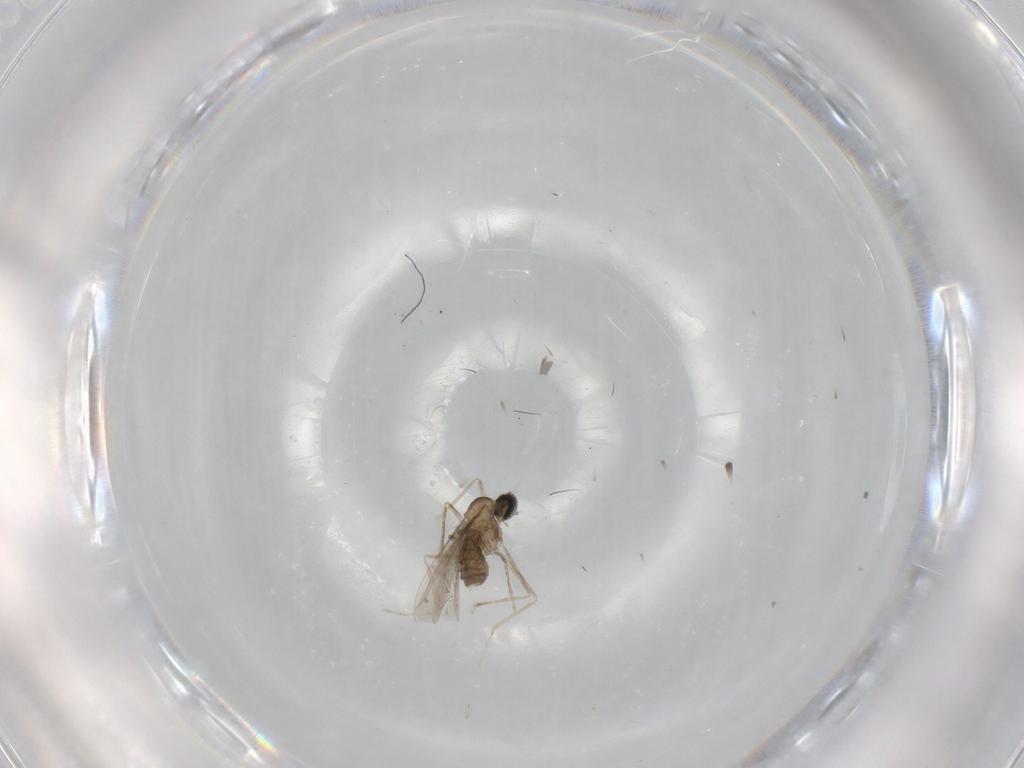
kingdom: Animalia
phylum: Arthropoda
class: Insecta
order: Diptera
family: Cecidomyiidae
